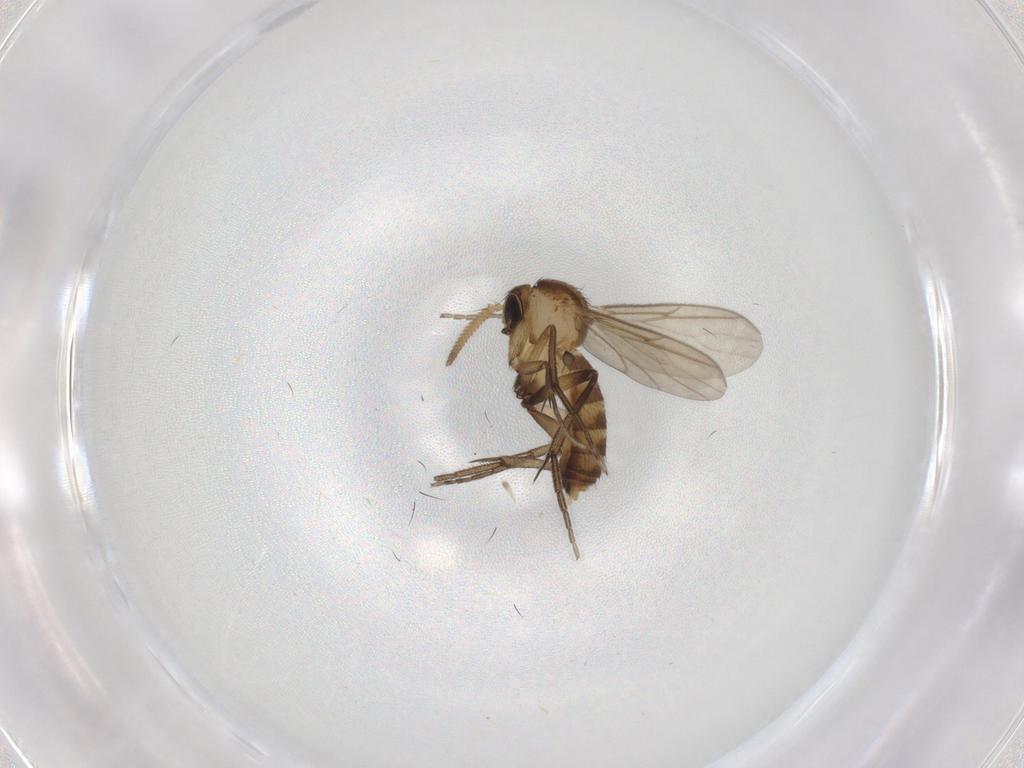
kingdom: Animalia
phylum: Arthropoda
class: Insecta
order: Diptera
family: Mycetophilidae
